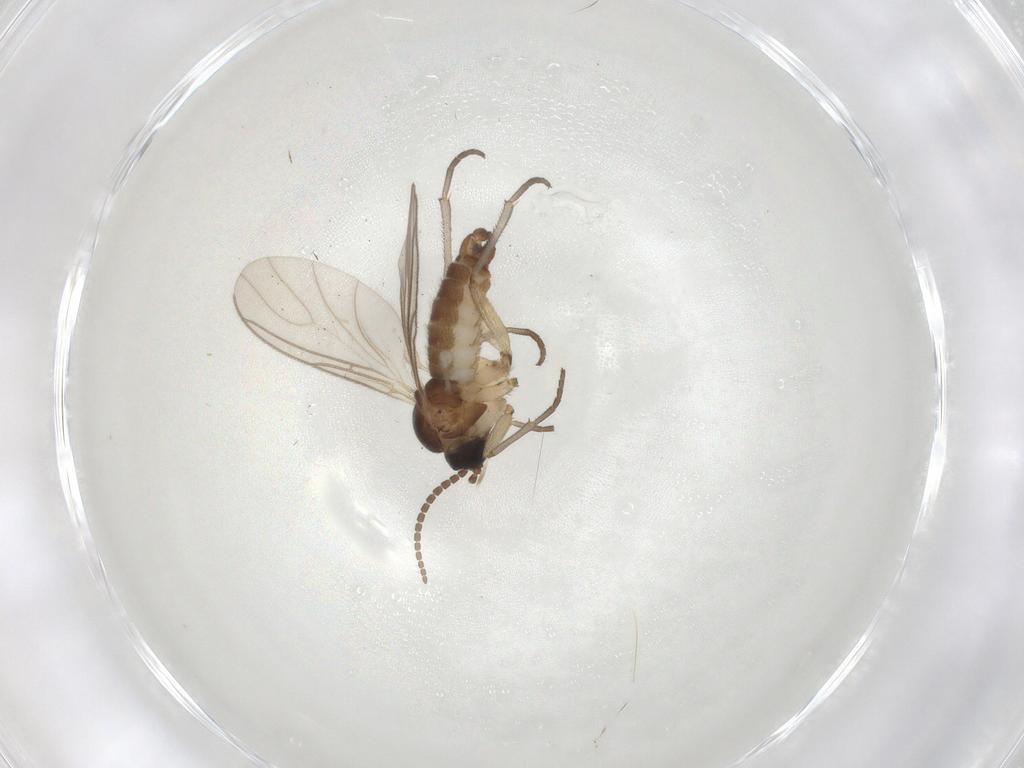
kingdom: Animalia
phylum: Arthropoda
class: Insecta
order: Diptera
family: Sciaridae
